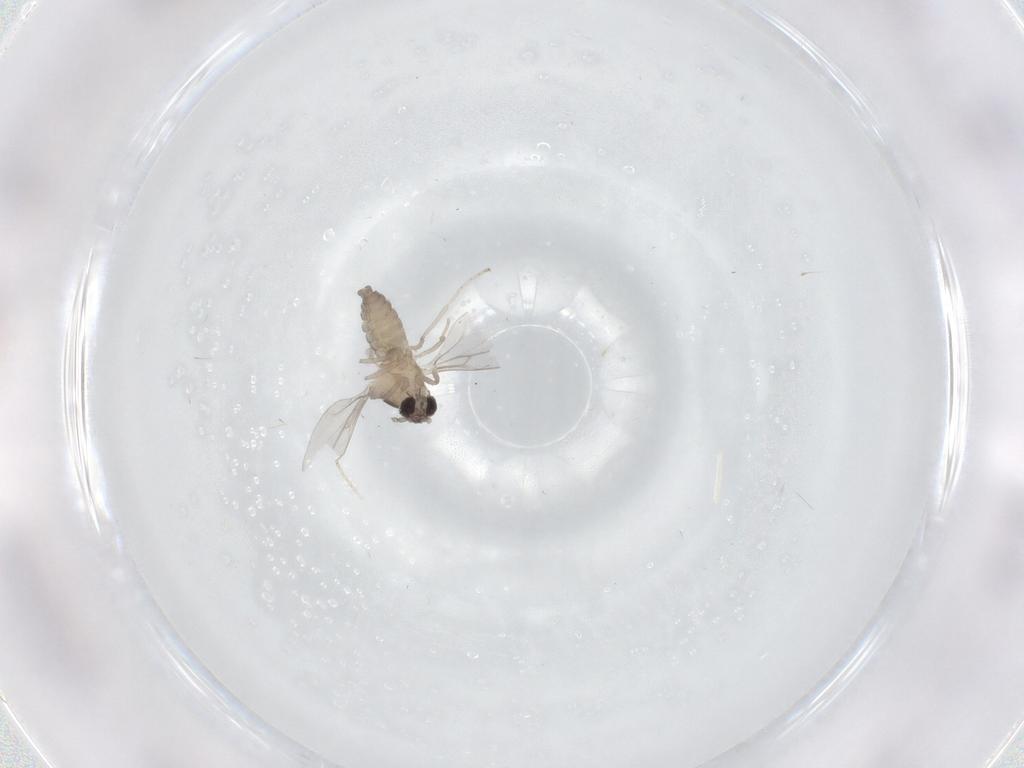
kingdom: Animalia
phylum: Arthropoda
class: Insecta
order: Diptera
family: Cecidomyiidae
